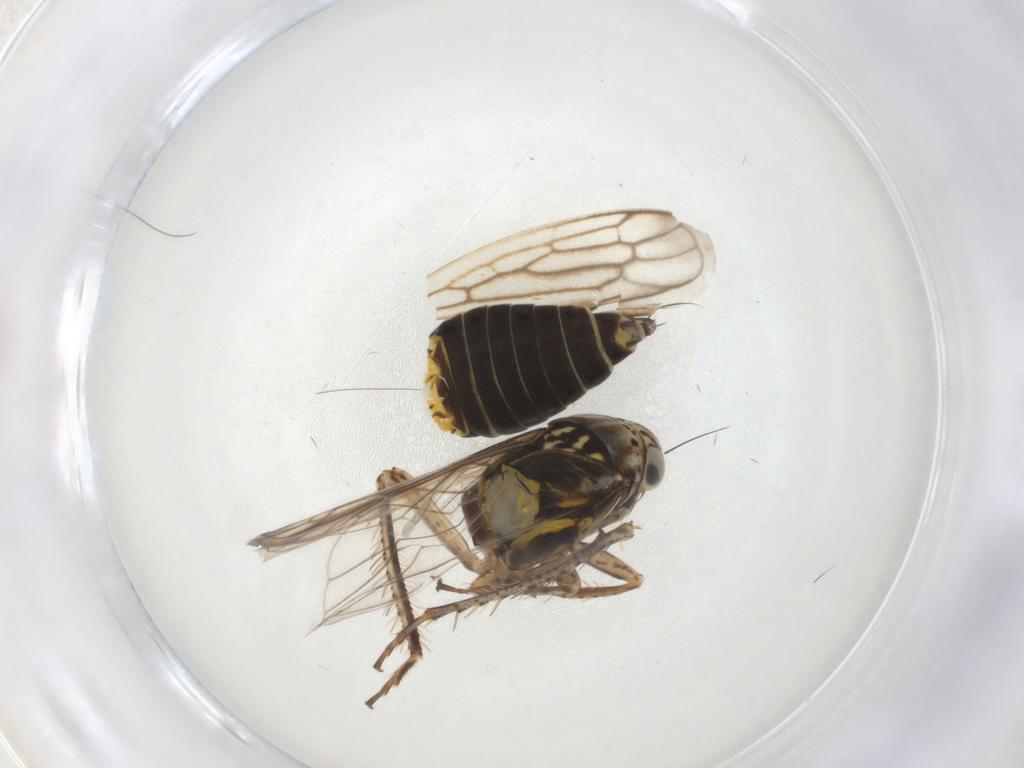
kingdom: Animalia
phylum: Arthropoda
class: Insecta
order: Hemiptera
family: Cicadellidae
